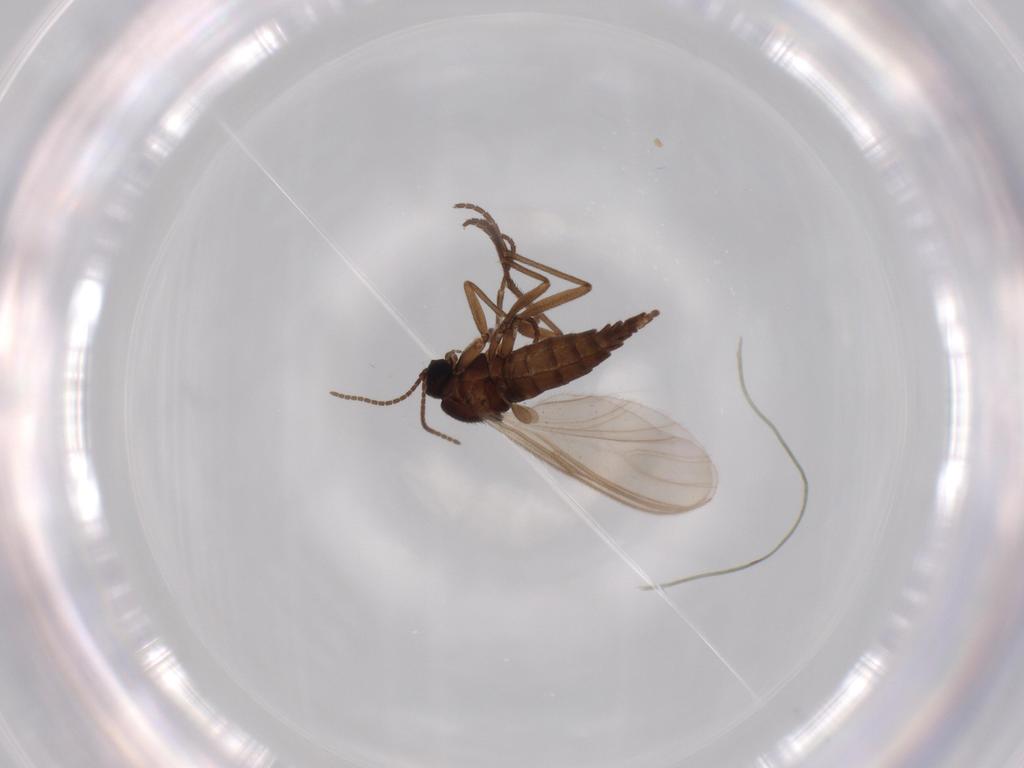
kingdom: Animalia
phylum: Arthropoda
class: Insecta
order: Diptera
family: Sciaridae
